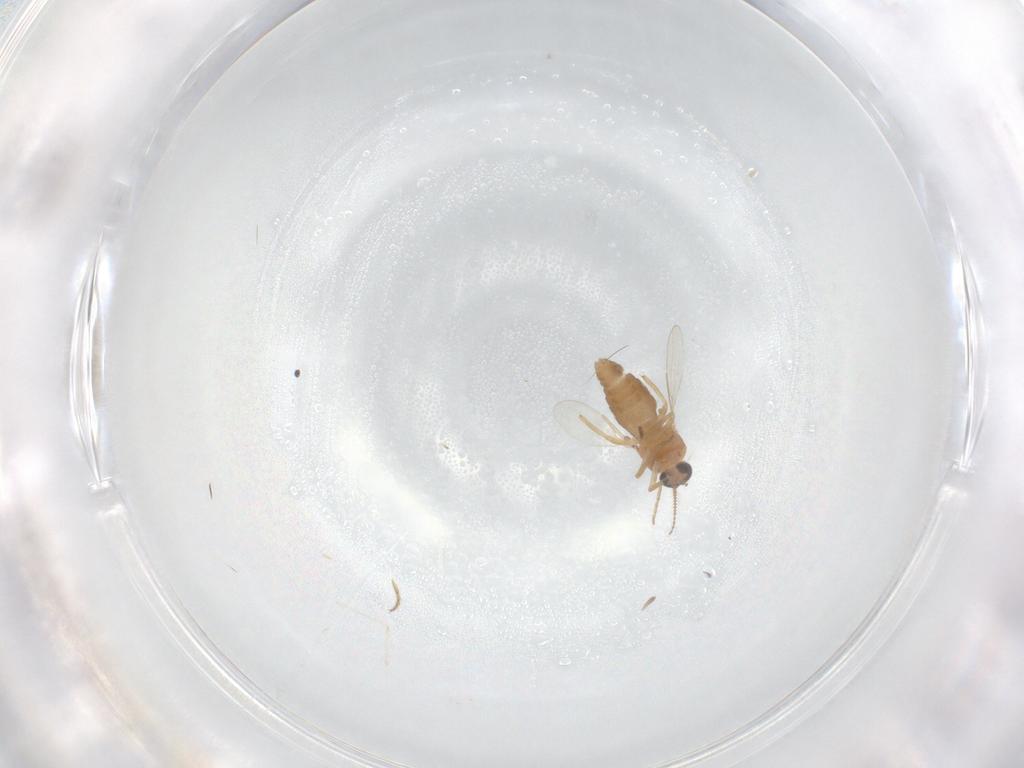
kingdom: Animalia
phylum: Arthropoda
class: Insecta
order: Diptera
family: Ceratopogonidae
